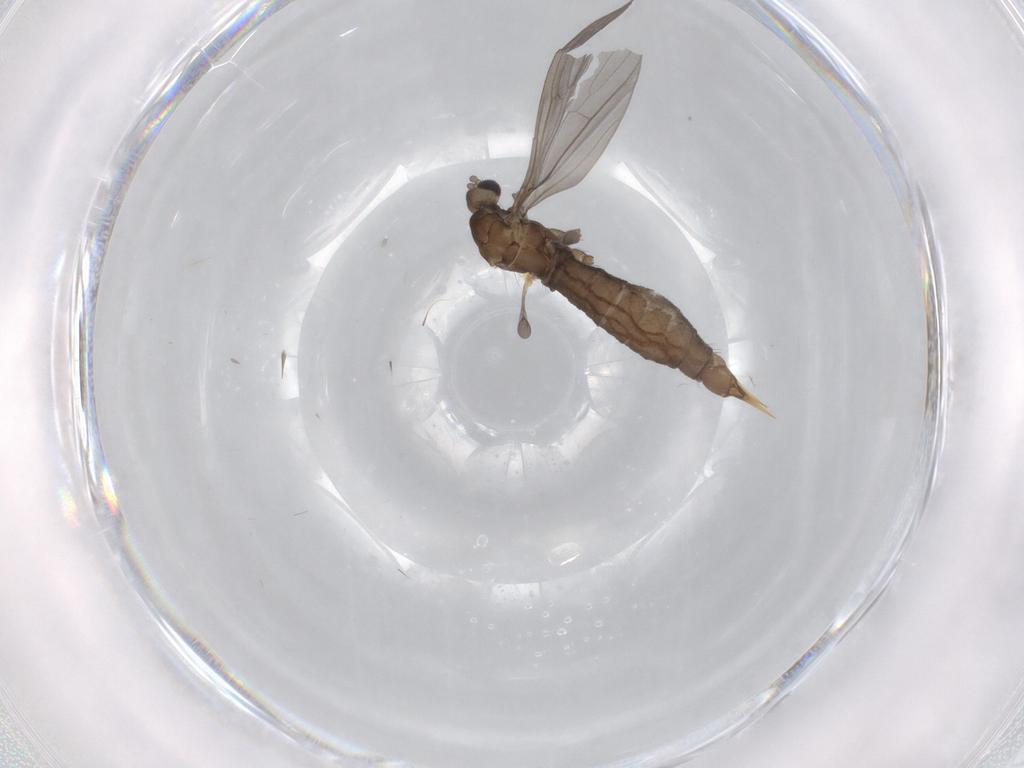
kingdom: Animalia
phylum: Arthropoda
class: Insecta
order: Diptera
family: Limoniidae
